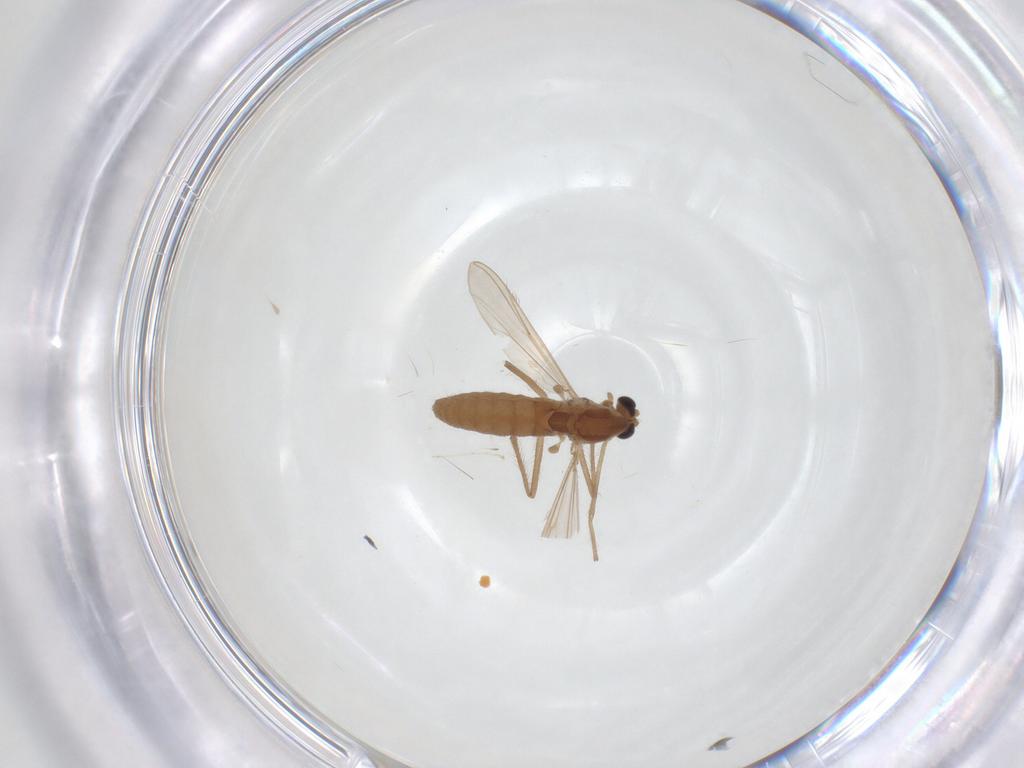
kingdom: Animalia
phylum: Arthropoda
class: Insecta
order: Diptera
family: Chironomidae
